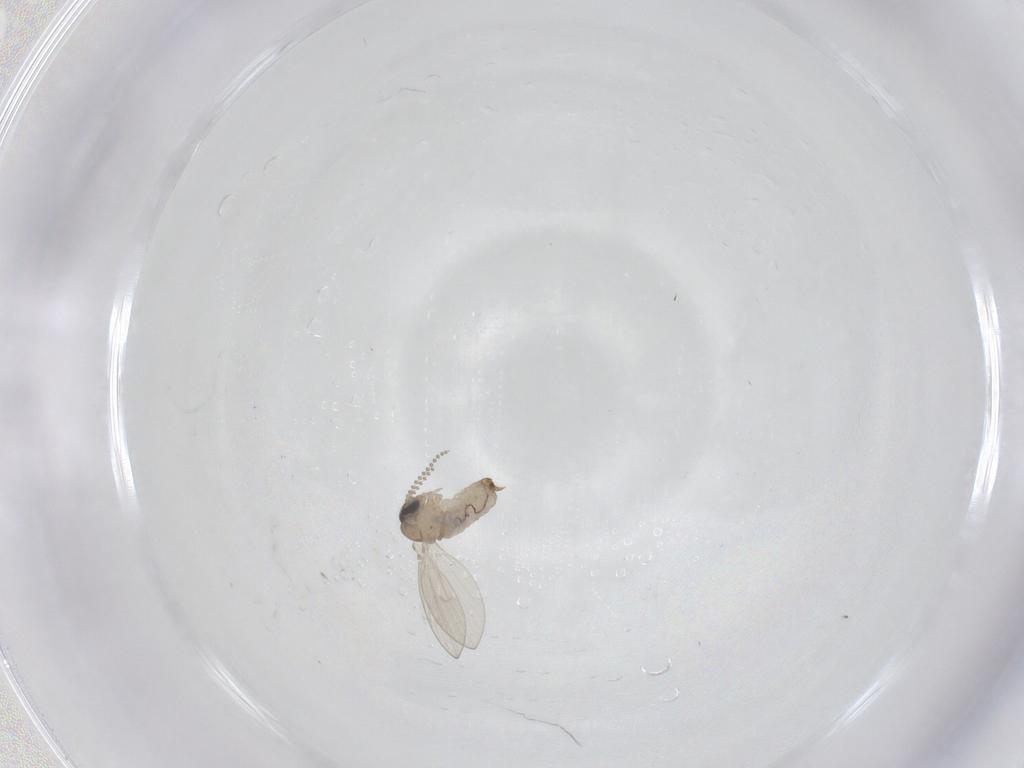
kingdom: Animalia
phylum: Arthropoda
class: Insecta
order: Diptera
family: Psychodidae
